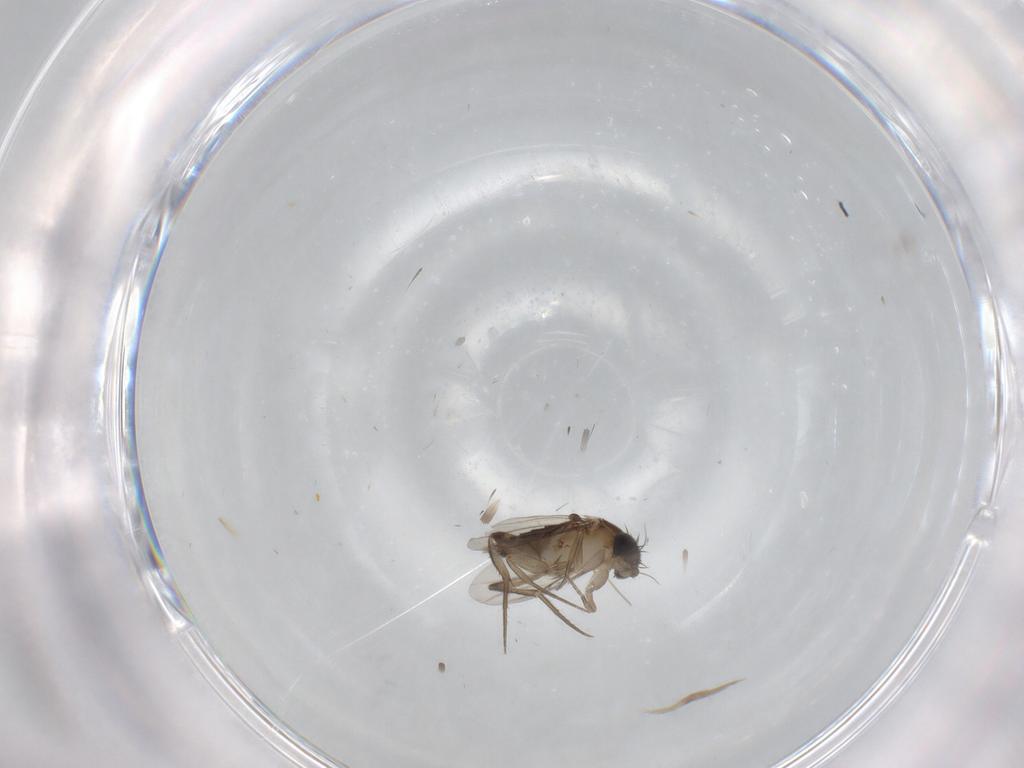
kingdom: Animalia
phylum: Arthropoda
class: Insecta
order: Diptera
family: Phoridae
